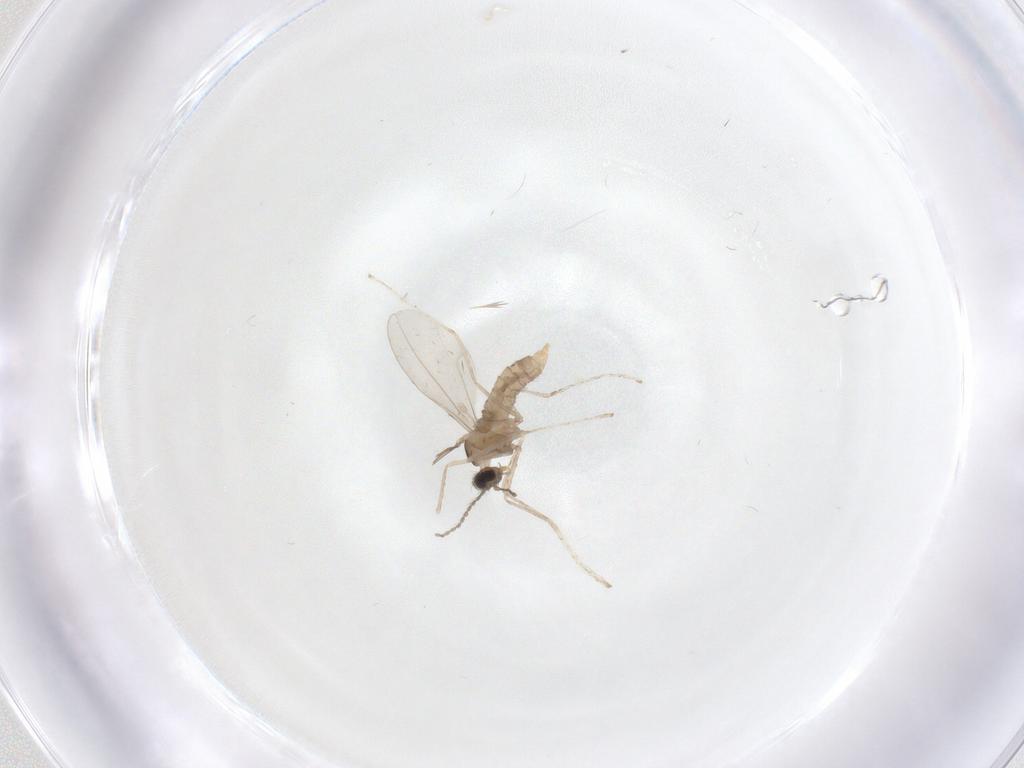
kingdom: Animalia
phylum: Arthropoda
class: Insecta
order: Diptera
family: Cecidomyiidae
